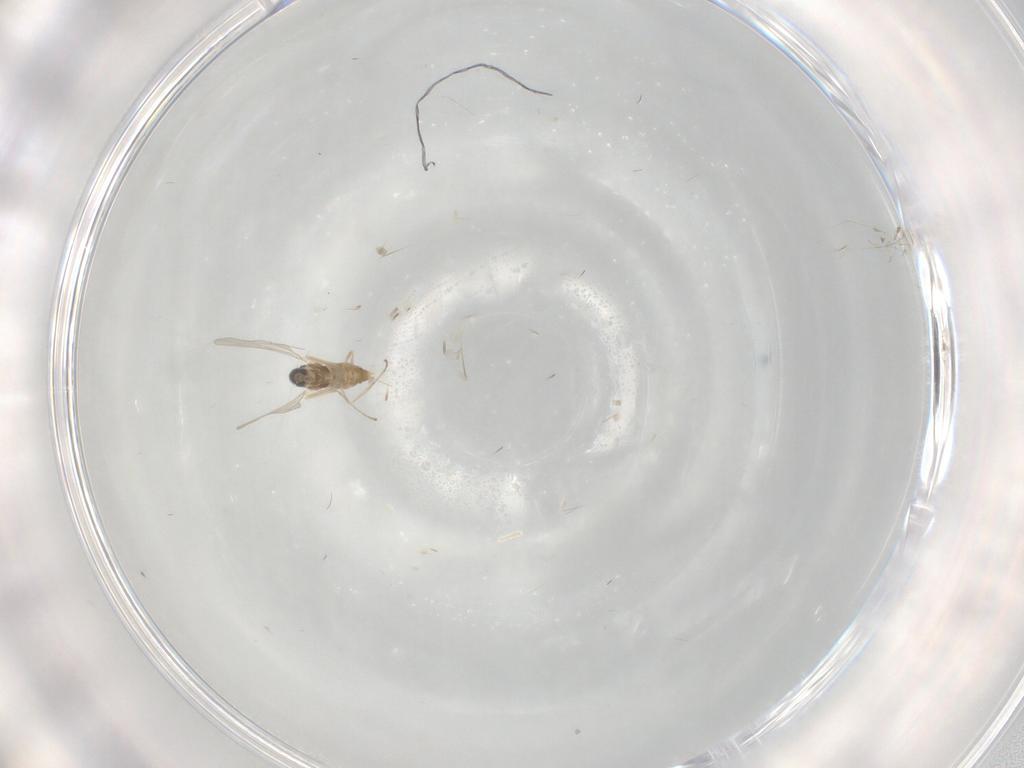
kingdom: Animalia
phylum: Arthropoda
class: Insecta
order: Diptera
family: Cecidomyiidae
